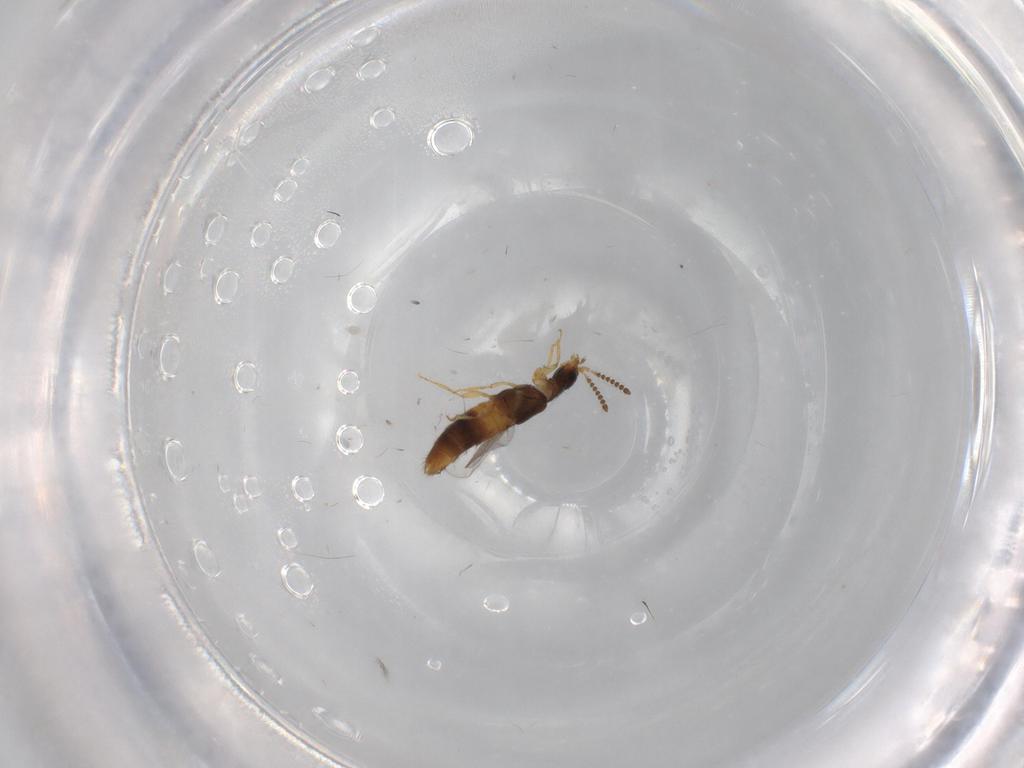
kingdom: Animalia
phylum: Arthropoda
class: Insecta
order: Coleoptera
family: Staphylinidae
